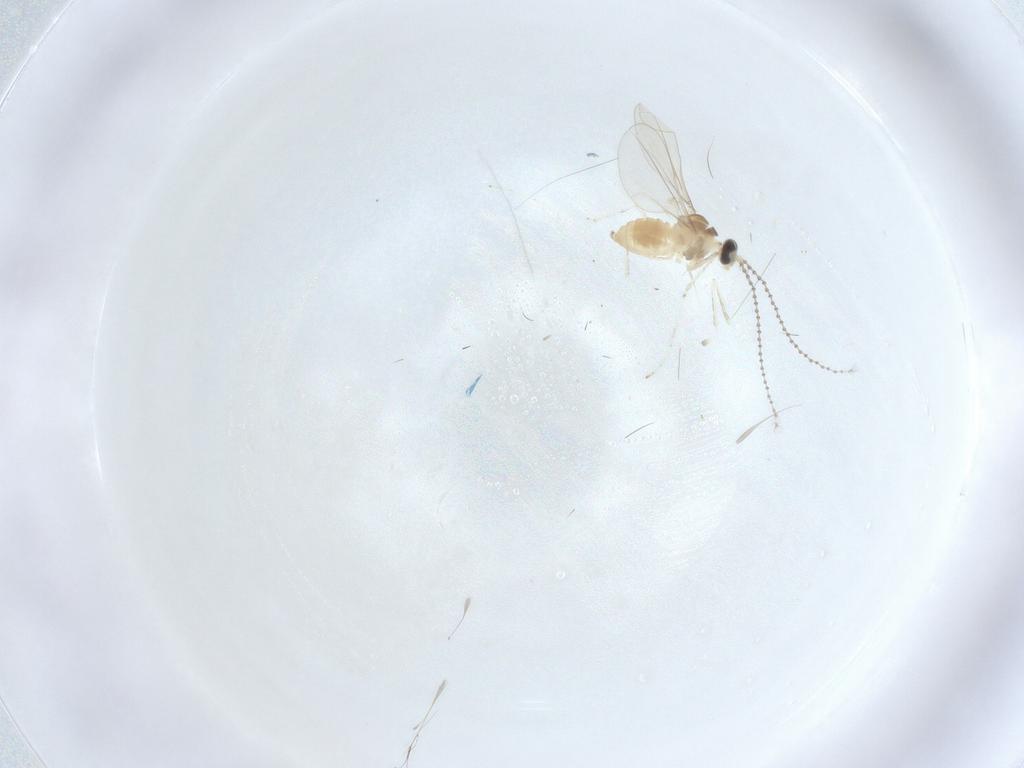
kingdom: Animalia
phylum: Arthropoda
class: Insecta
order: Diptera
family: Cecidomyiidae
